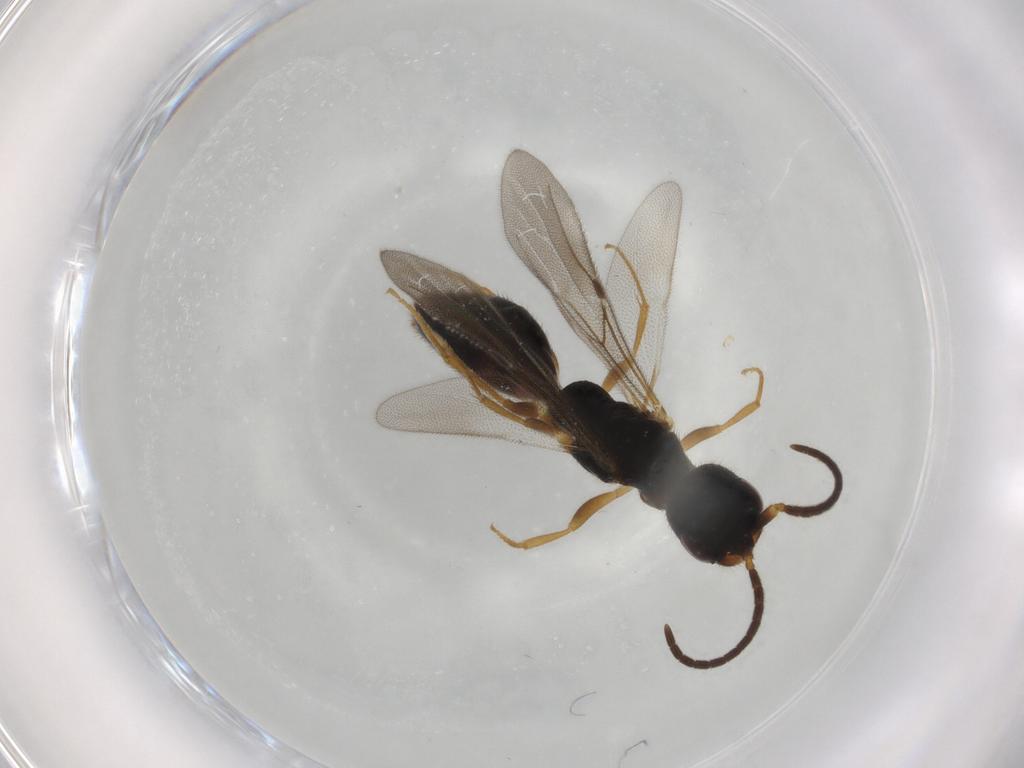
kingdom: Animalia
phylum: Arthropoda
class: Insecta
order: Hymenoptera
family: Bethylidae
